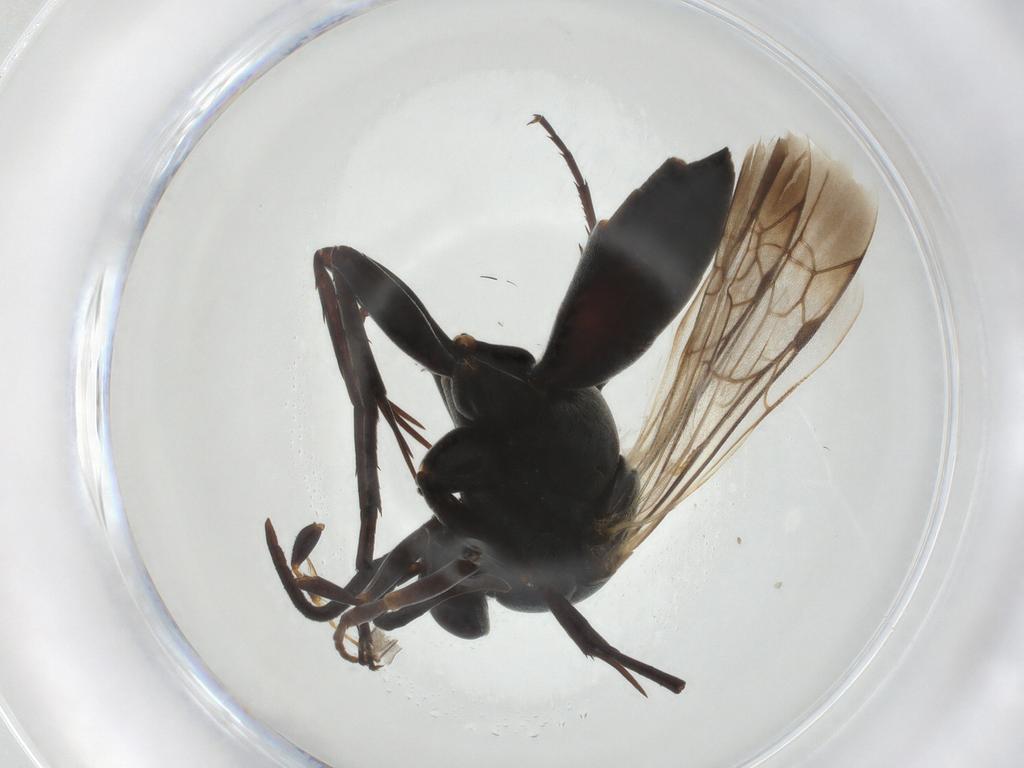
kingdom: Animalia
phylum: Arthropoda
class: Insecta
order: Hymenoptera
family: Pompilidae
